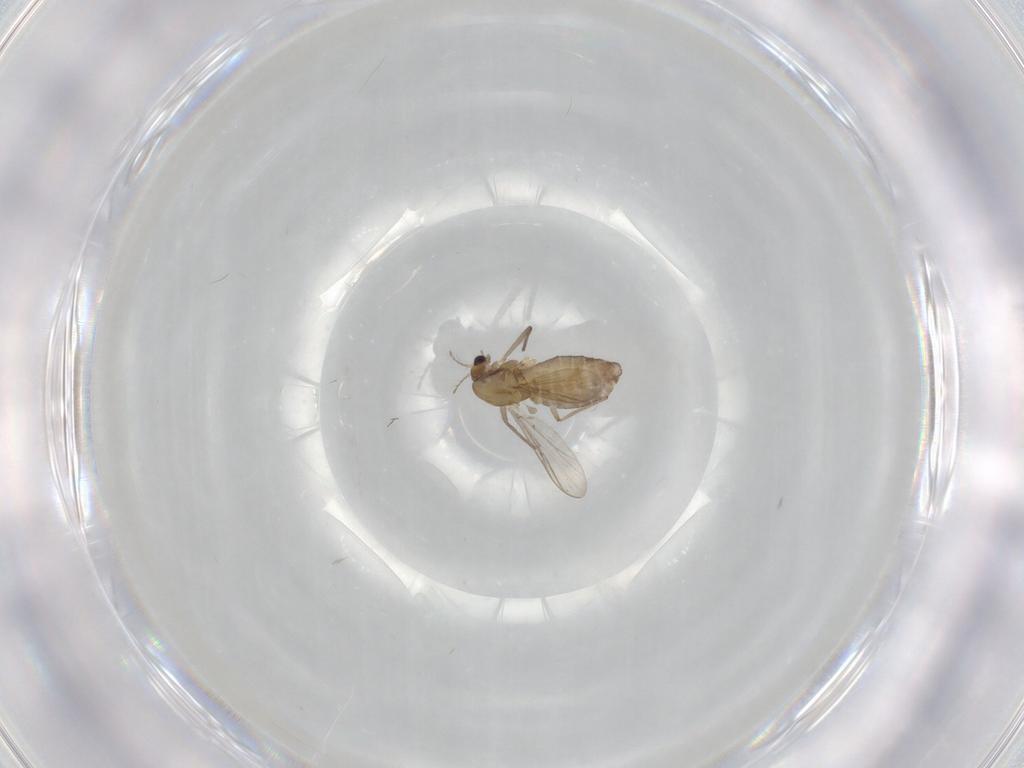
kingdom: Animalia
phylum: Arthropoda
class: Insecta
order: Diptera
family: Chironomidae
